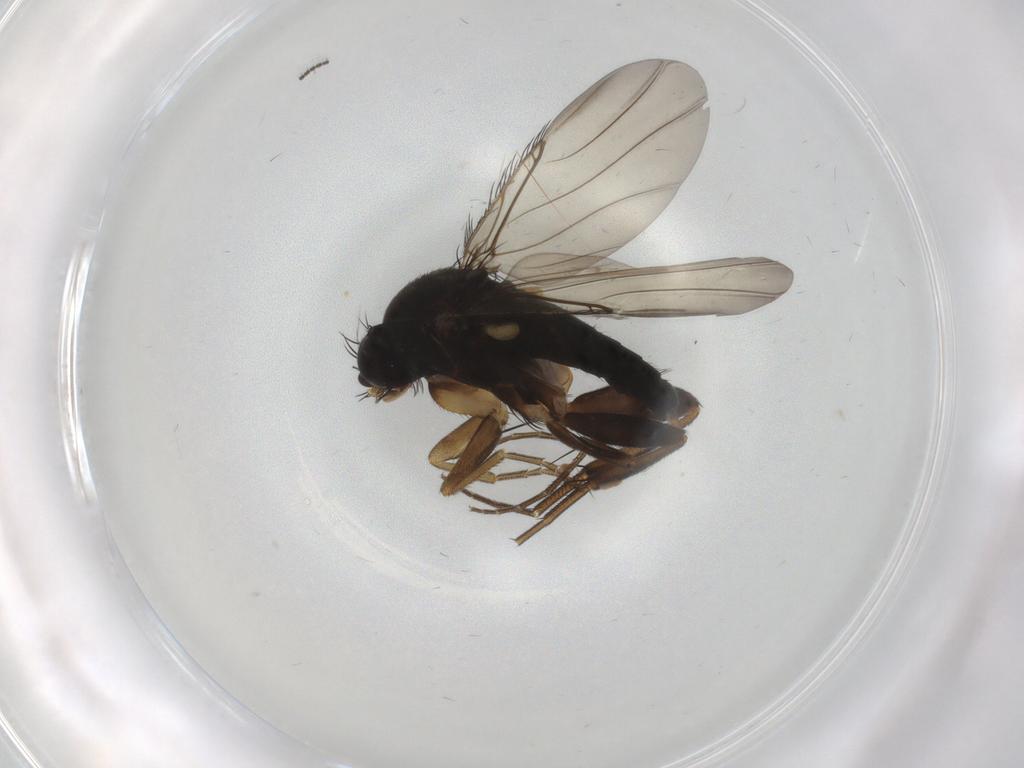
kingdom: Animalia
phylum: Arthropoda
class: Insecta
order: Diptera
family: Phoridae
